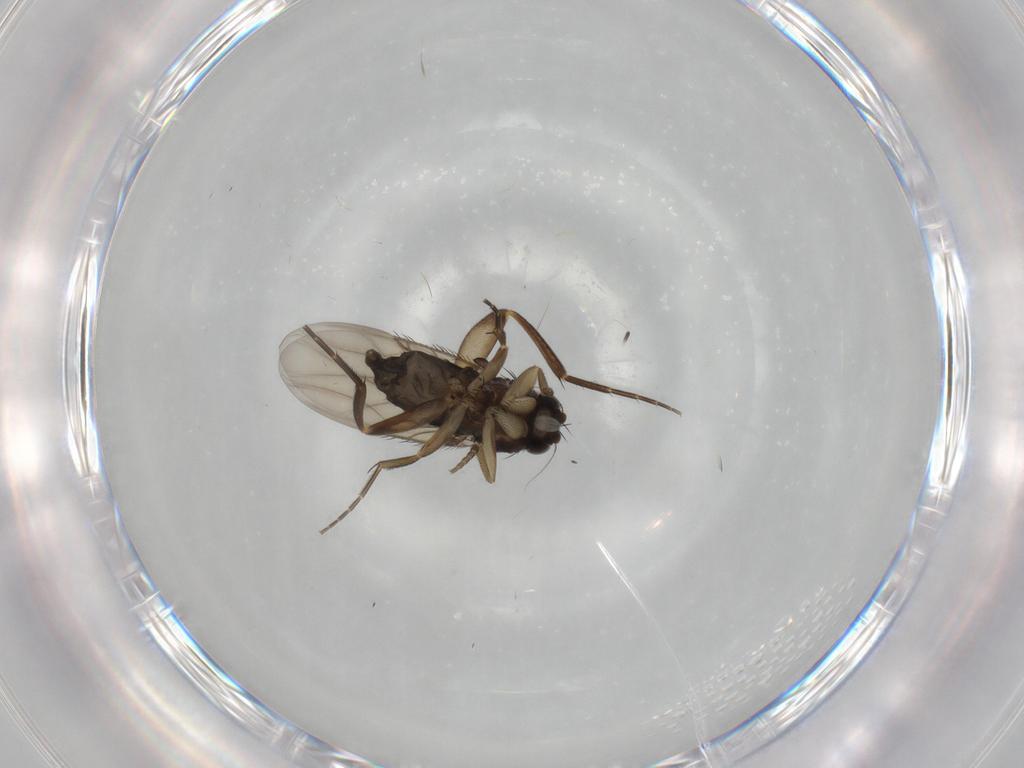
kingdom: Animalia
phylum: Arthropoda
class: Insecta
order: Diptera
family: Phoridae
